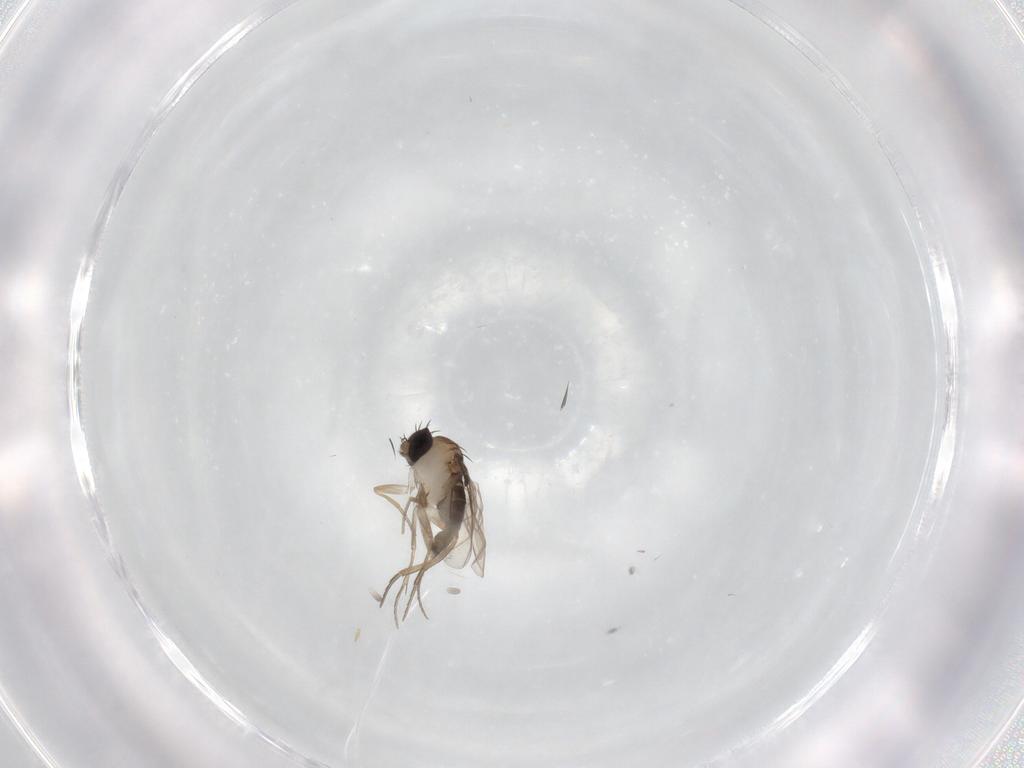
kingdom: Animalia
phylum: Arthropoda
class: Insecta
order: Diptera
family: Phoridae
